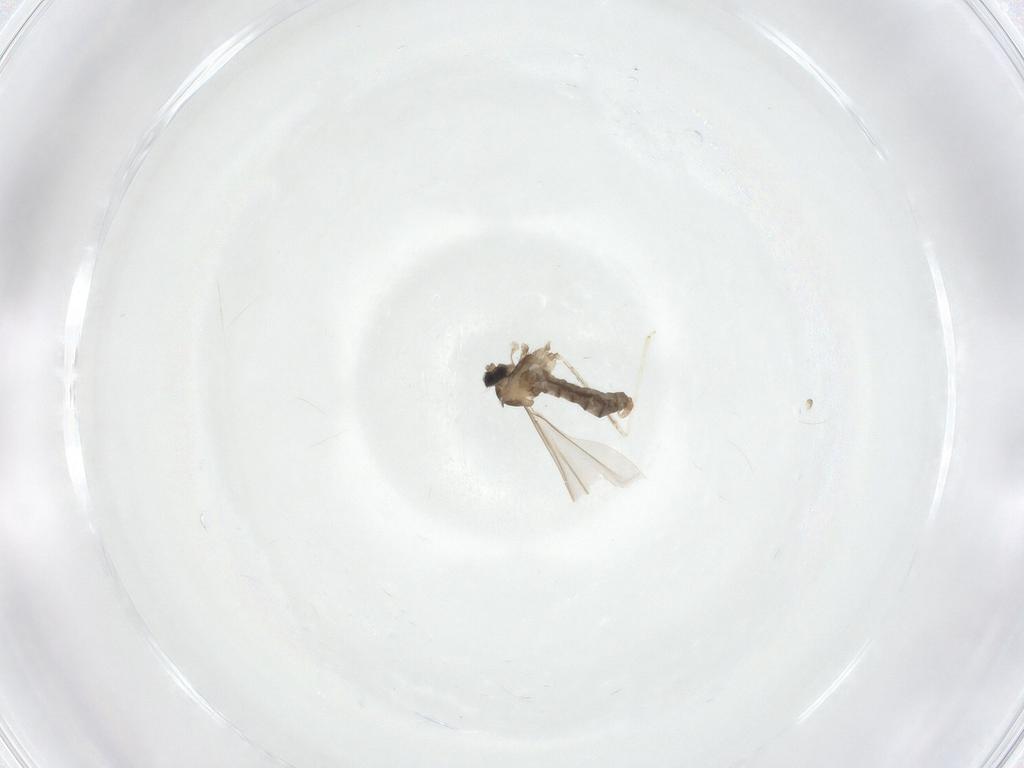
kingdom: Animalia
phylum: Arthropoda
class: Insecta
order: Diptera
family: Cecidomyiidae
